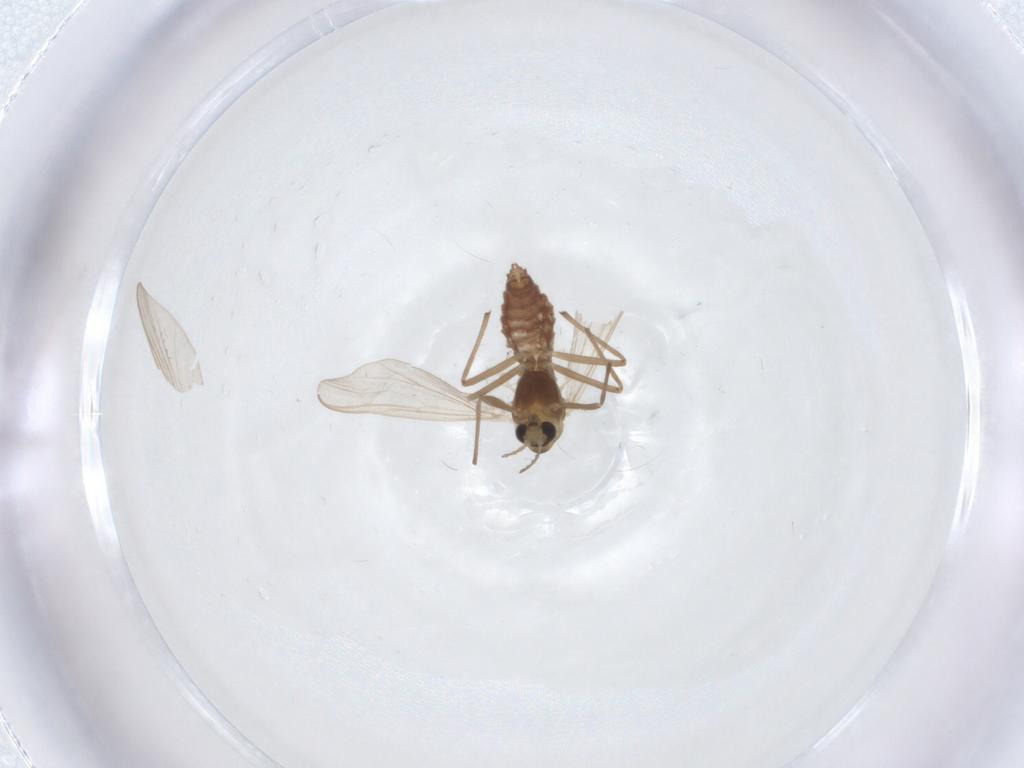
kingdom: Animalia
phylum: Arthropoda
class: Insecta
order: Diptera
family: Chironomidae
